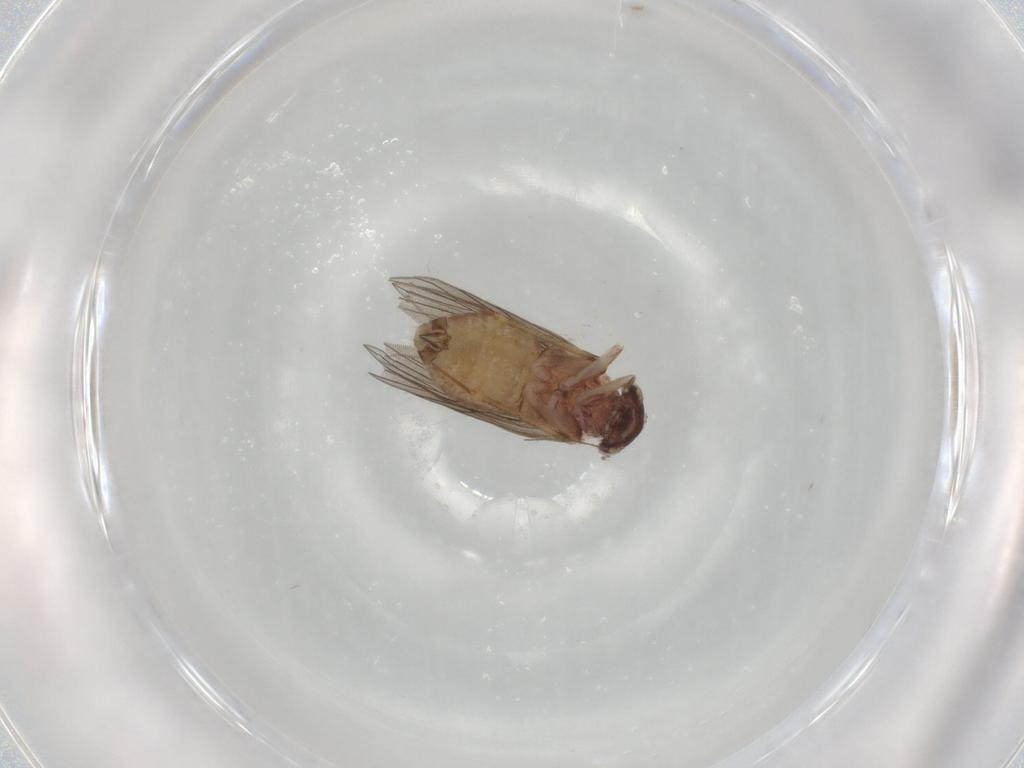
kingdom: Animalia
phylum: Arthropoda
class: Insecta
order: Psocodea
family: Lepidopsocidae
